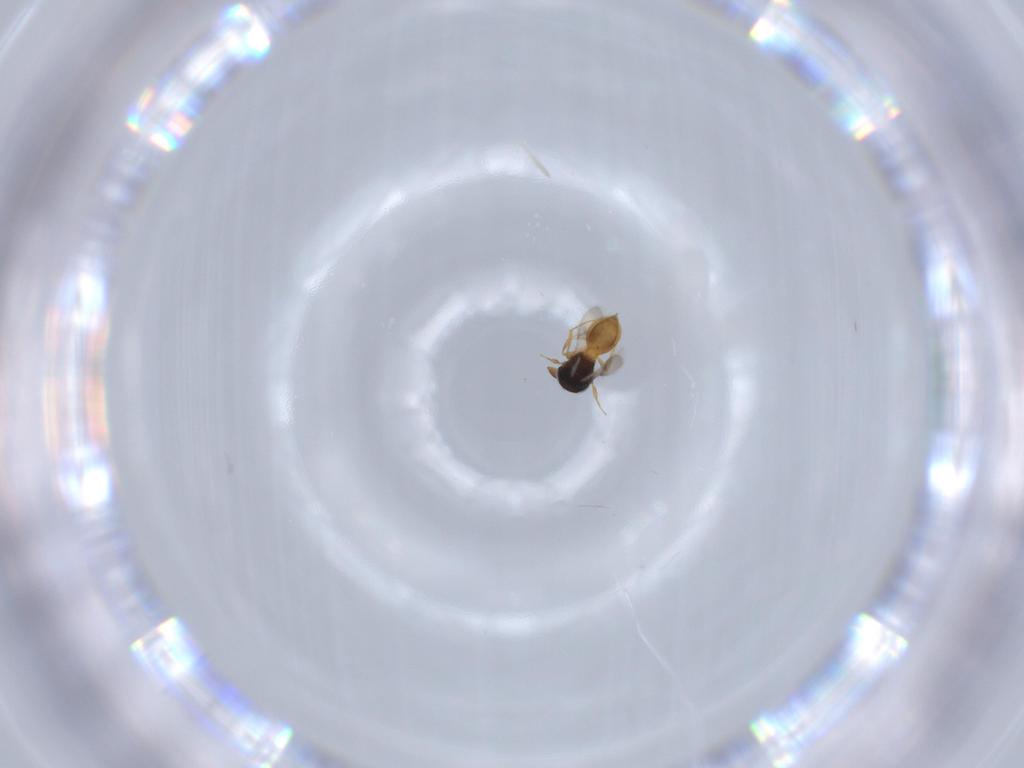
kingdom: Animalia
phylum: Arthropoda
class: Insecta
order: Hymenoptera
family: Scelionidae
